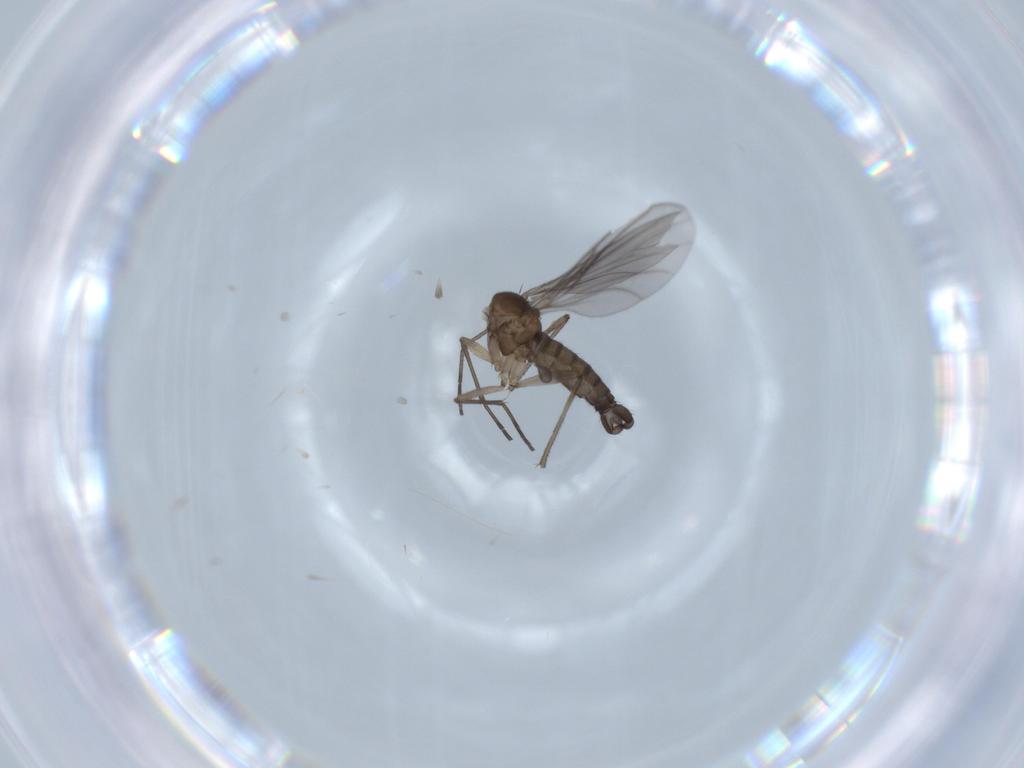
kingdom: Animalia
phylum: Arthropoda
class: Insecta
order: Diptera
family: Sciaridae
